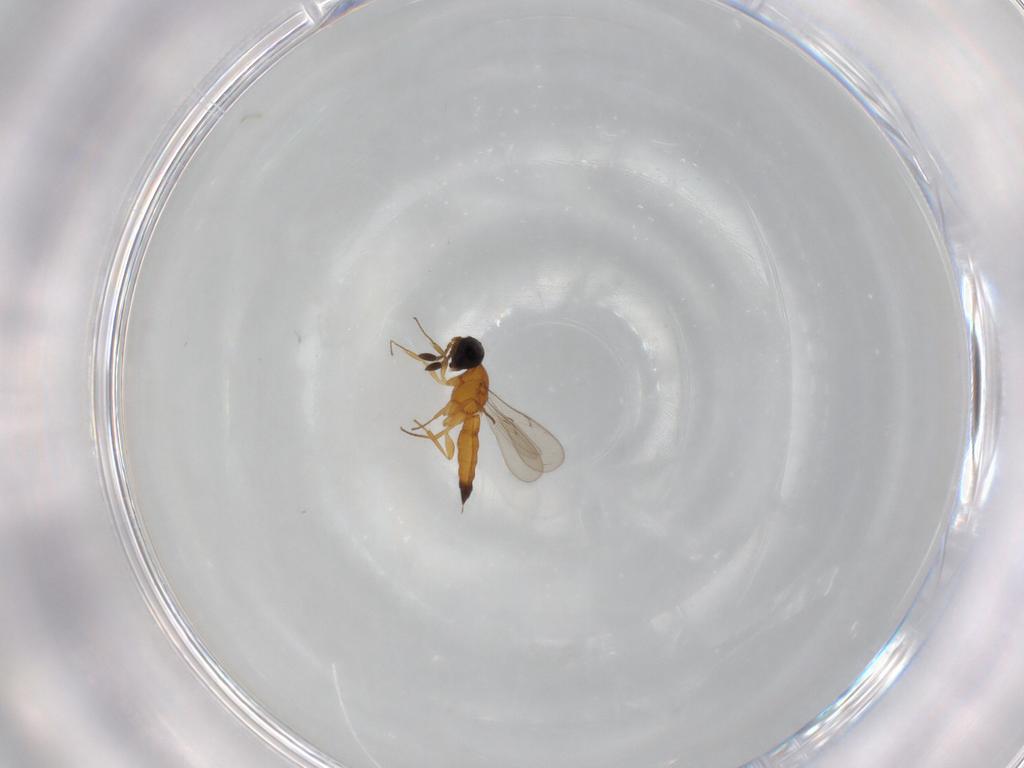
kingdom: Animalia
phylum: Arthropoda
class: Insecta
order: Hymenoptera
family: Scelionidae
